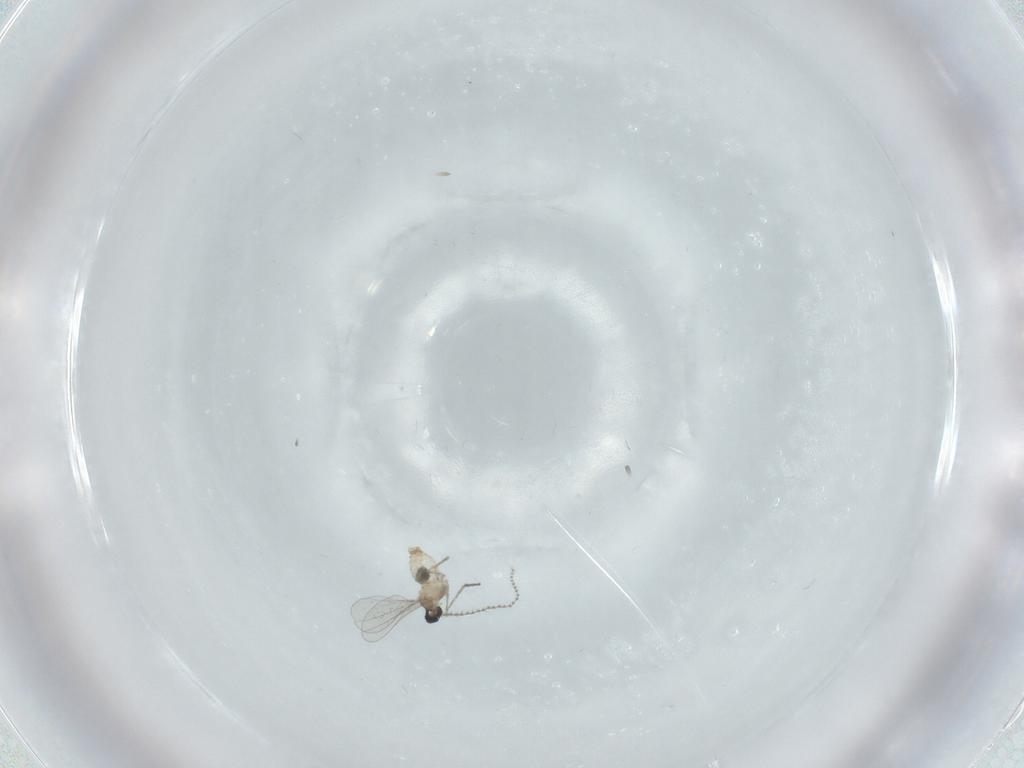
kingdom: Animalia
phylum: Arthropoda
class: Insecta
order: Diptera
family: Cecidomyiidae
